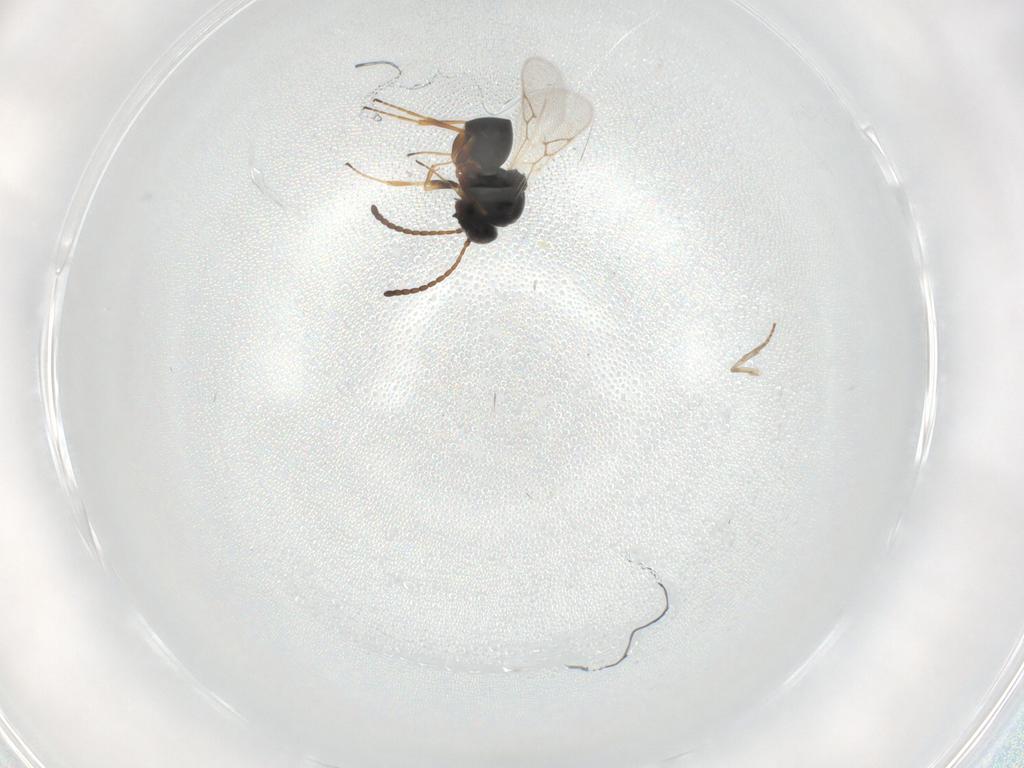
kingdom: Animalia
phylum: Arthropoda
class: Insecta
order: Hymenoptera
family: Figitidae
